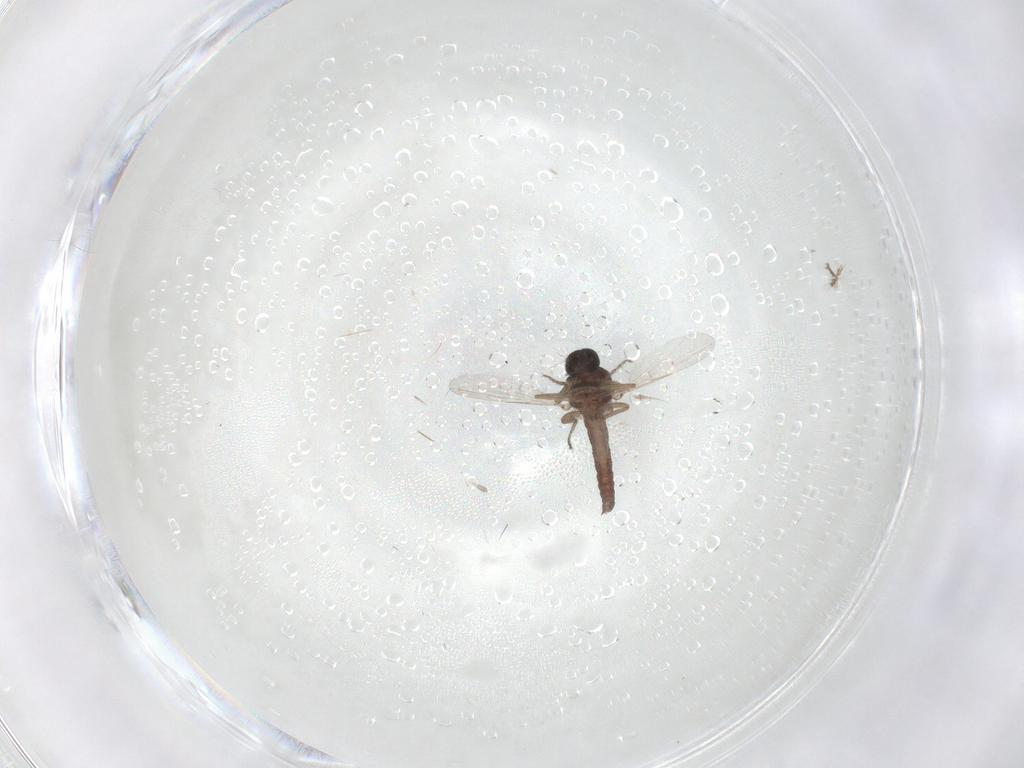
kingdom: Animalia
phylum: Arthropoda
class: Insecta
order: Diptera
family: Ceratopogonidae
